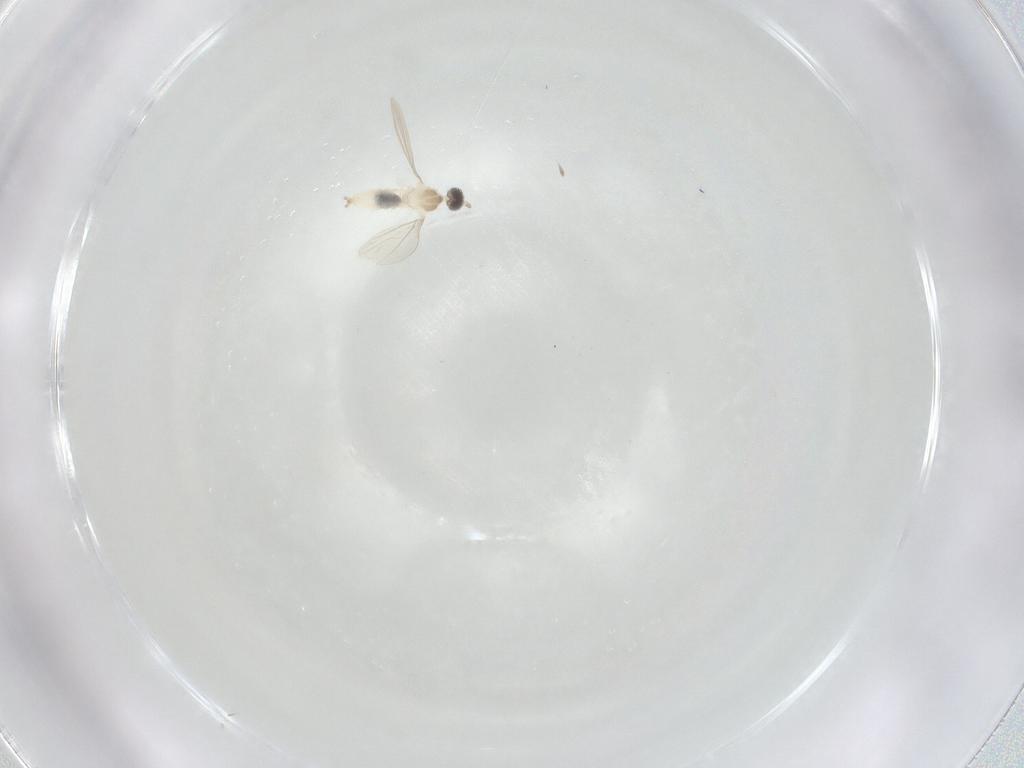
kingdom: Animalia
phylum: Arthropoda
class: Insecta
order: Diptera
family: Cecidomyiidae
